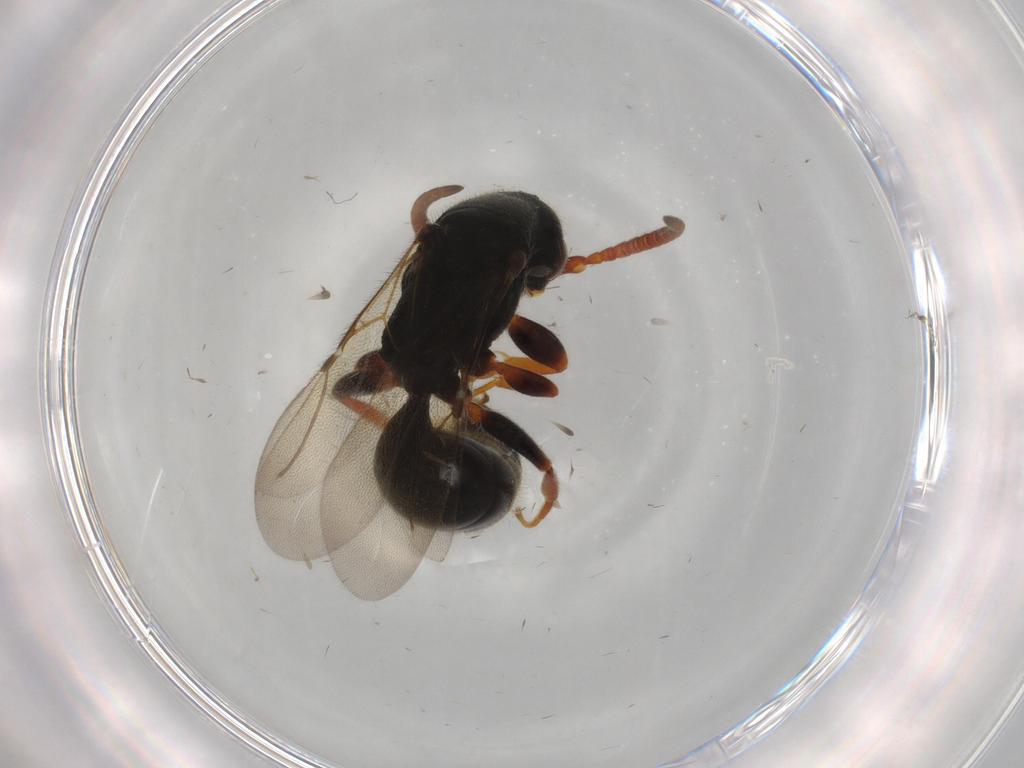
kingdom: Animalia
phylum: Arthropoda
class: Insecta
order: Hymenoptera
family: Bethylidae
